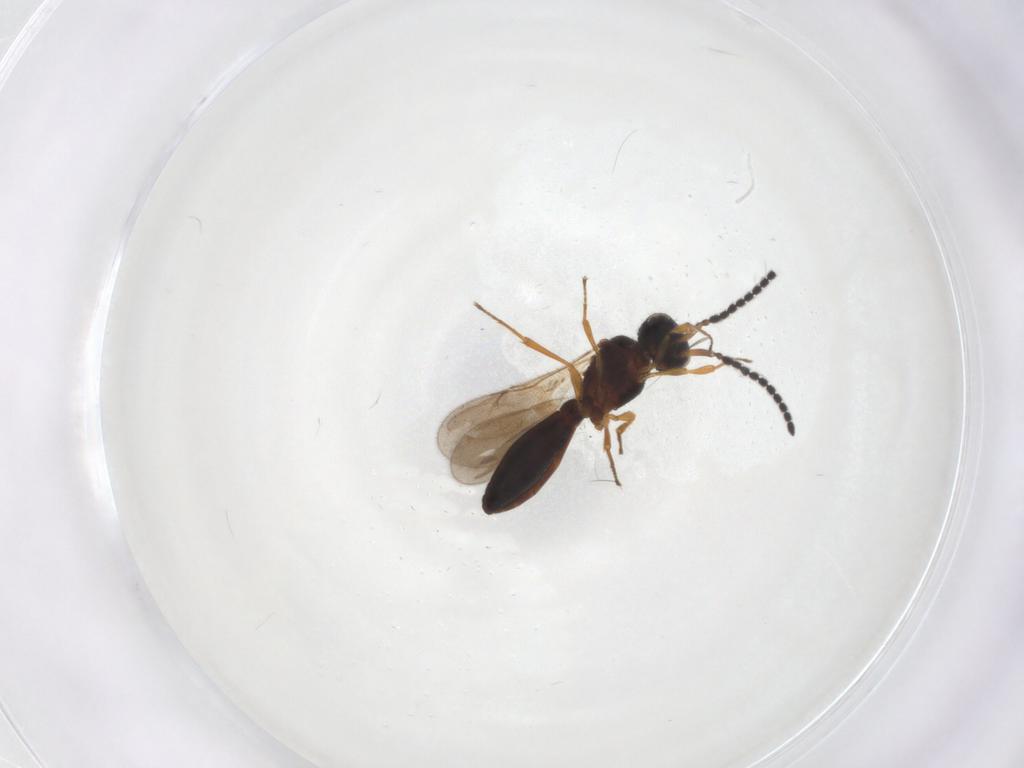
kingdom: Animalia
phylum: Arthropoda
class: Insecta
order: Hymenoptera
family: Scelionidae
